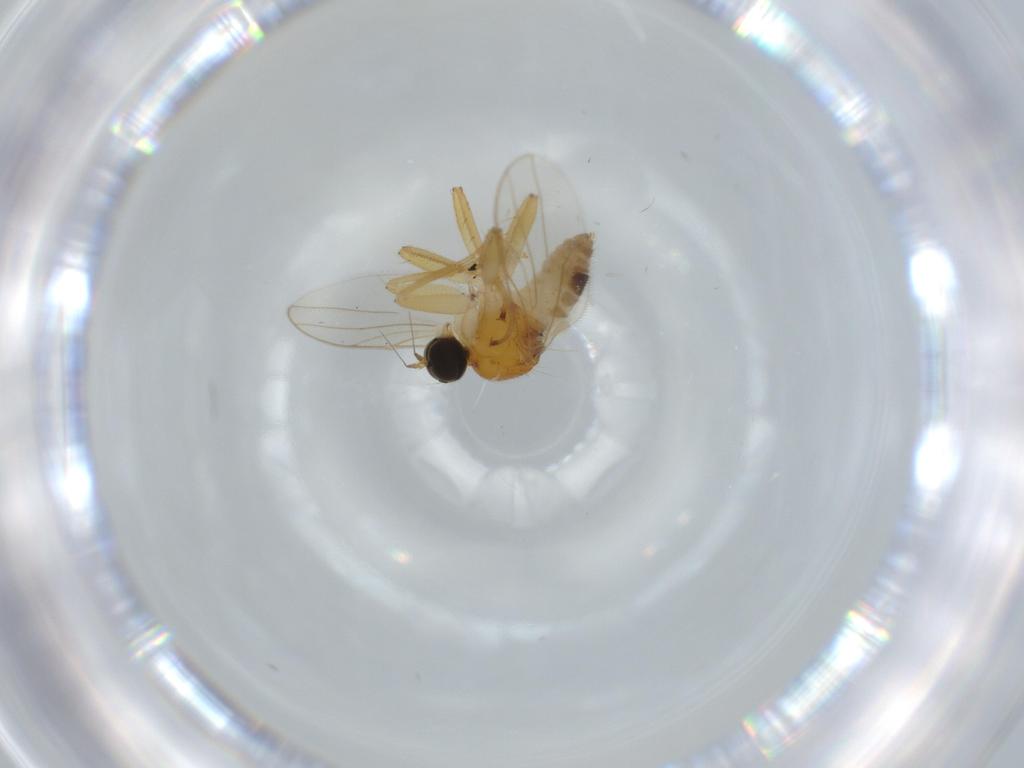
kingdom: Animalia
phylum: Arthropoda
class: Insecta
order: Diptera
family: Hybotidae
